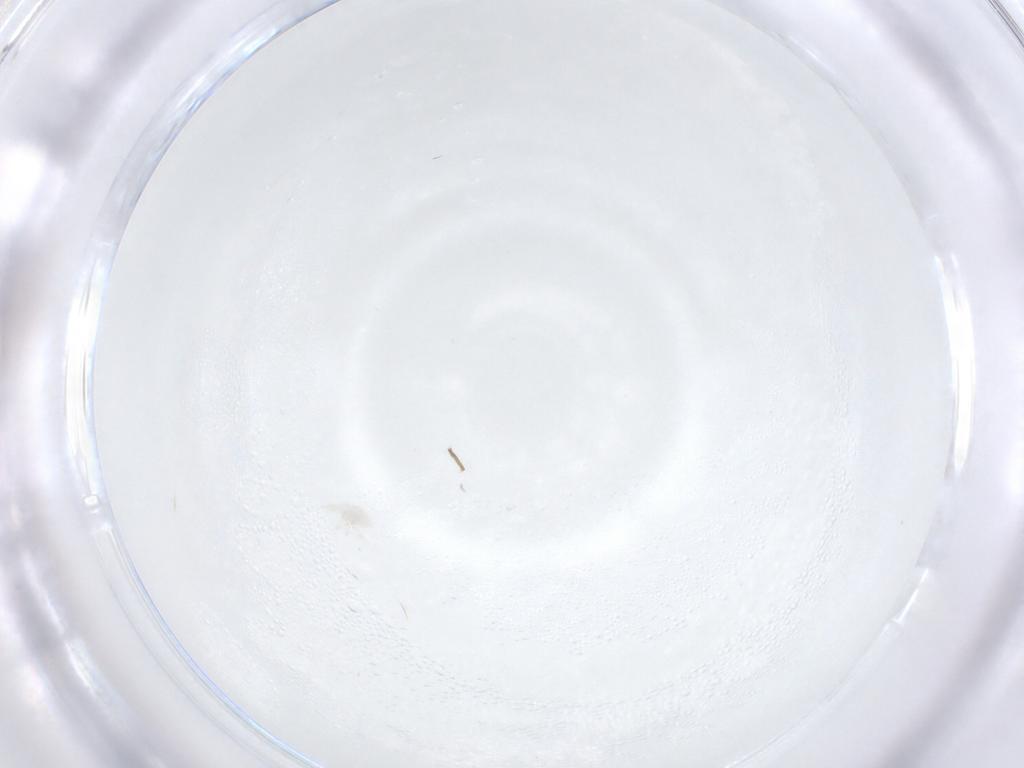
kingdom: Animalia
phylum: Arthropoda
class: Arachnida
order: Trombidiformes
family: Bdellidae
